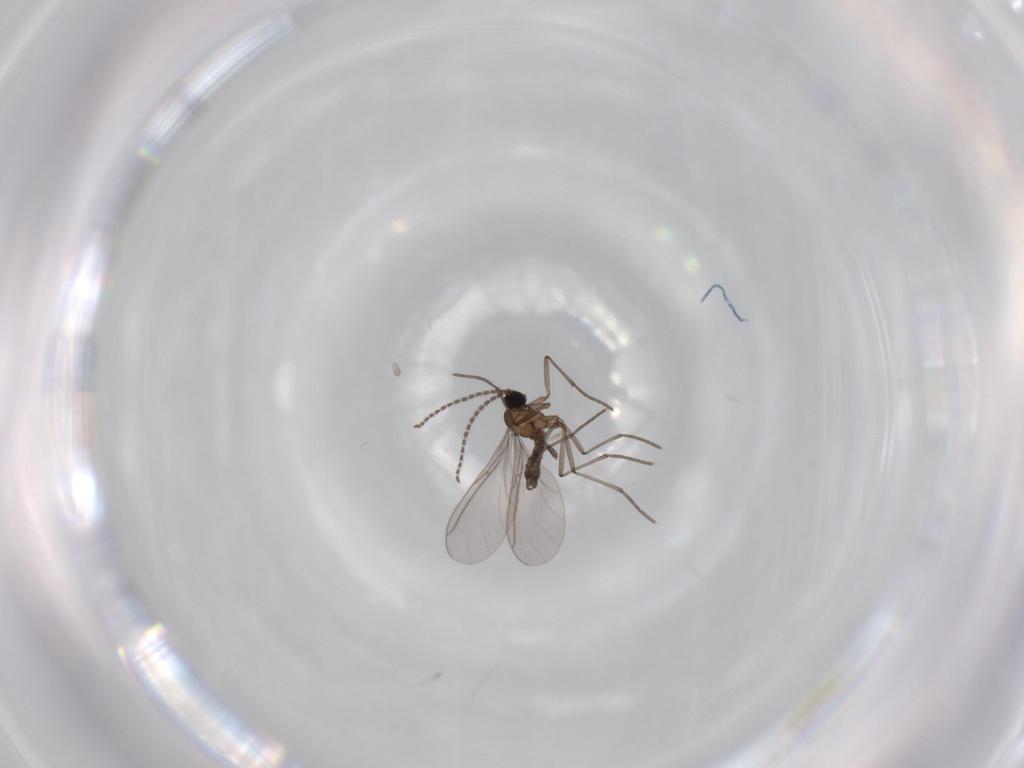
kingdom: Animalia
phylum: Arthropoda
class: Insecta
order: Diptera
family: Sciaridae
